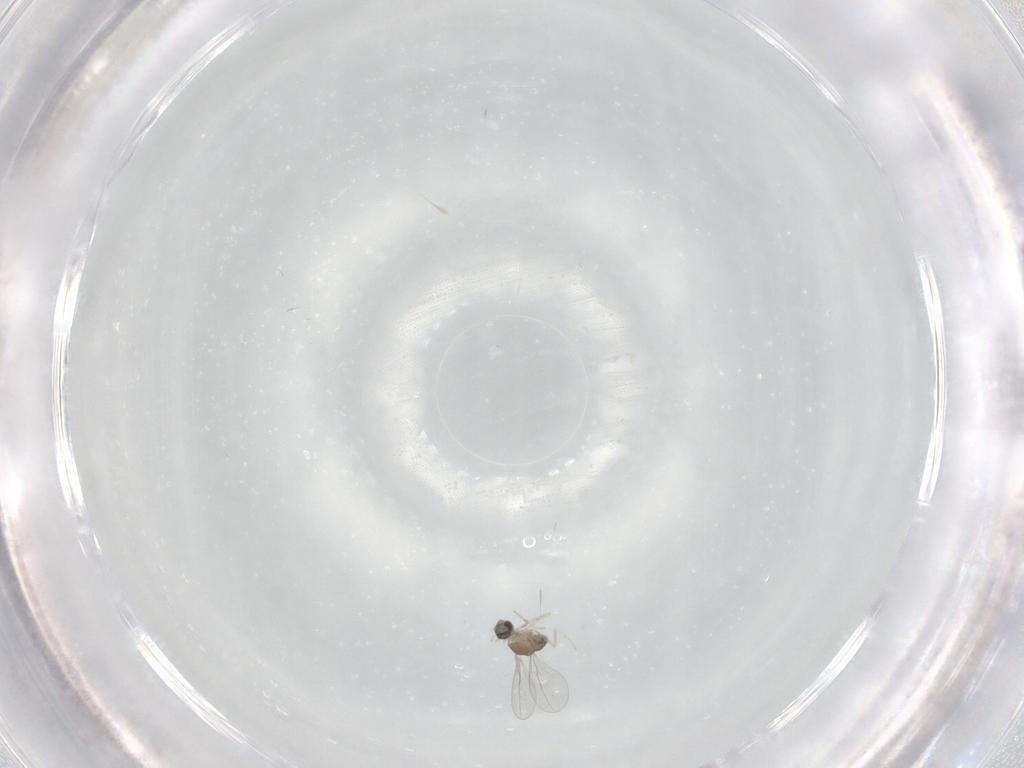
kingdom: Animalia
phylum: Arthropoda
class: Insecta
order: Diptera
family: Cecidomyiidae
